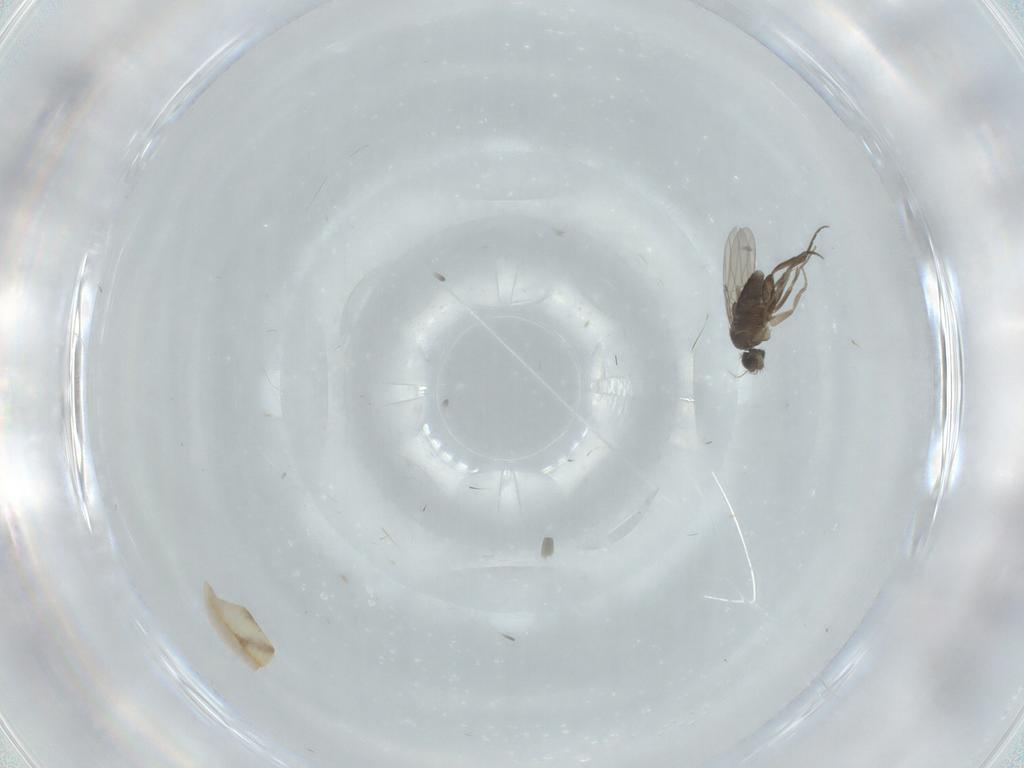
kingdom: Animalia
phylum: Arthropoda
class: Insecta
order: Diptera
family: Phoridae
